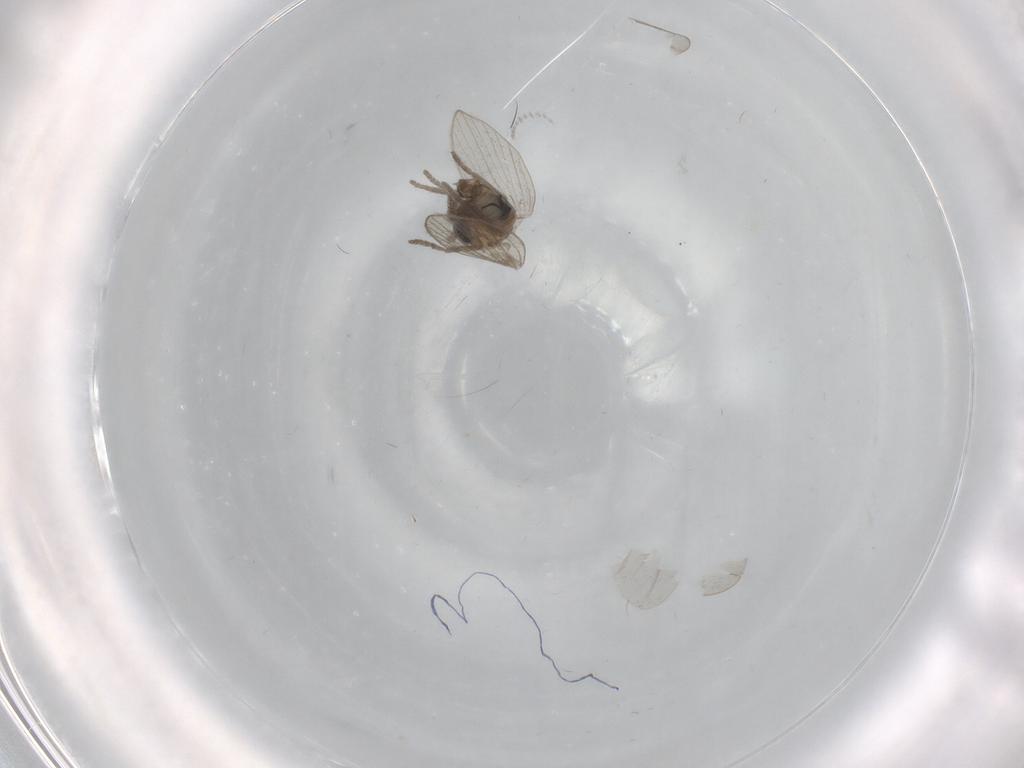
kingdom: Animalia
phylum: Arthropoda
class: Insecta
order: Diptera
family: Psychodidae
